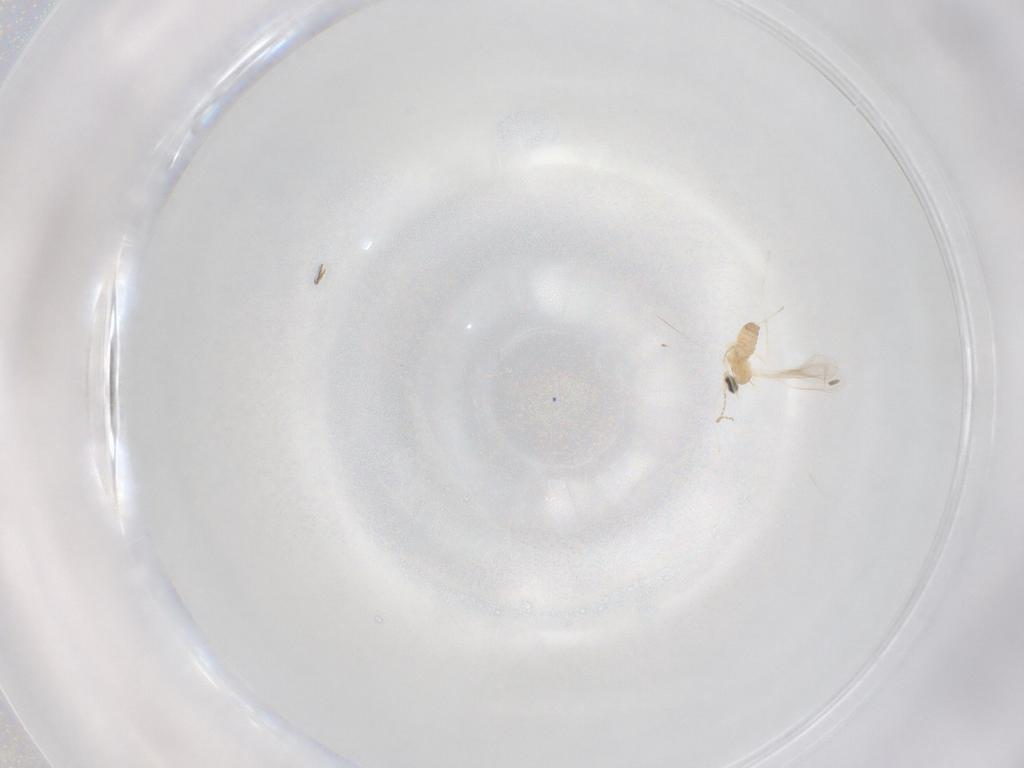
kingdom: Animalia
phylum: Arthropoda
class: Insecta
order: Diptera
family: Cecidomyiidae
